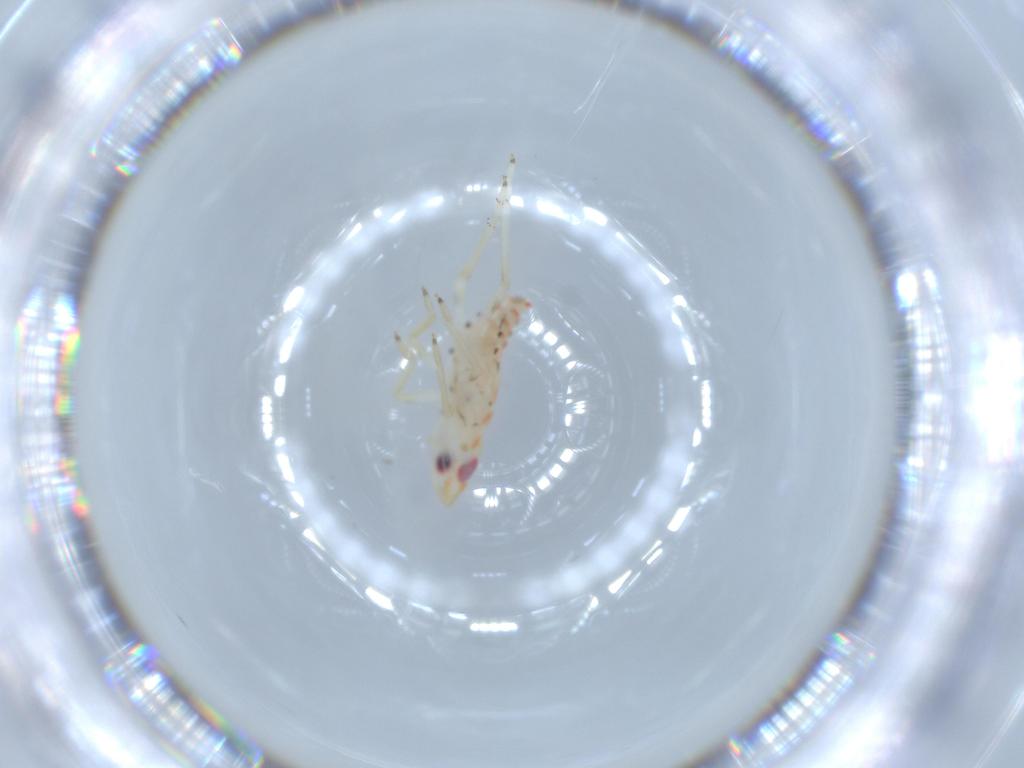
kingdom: Animalia
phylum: Arthropoda
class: Insecta
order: Hemiptera
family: Tropiduchidae
